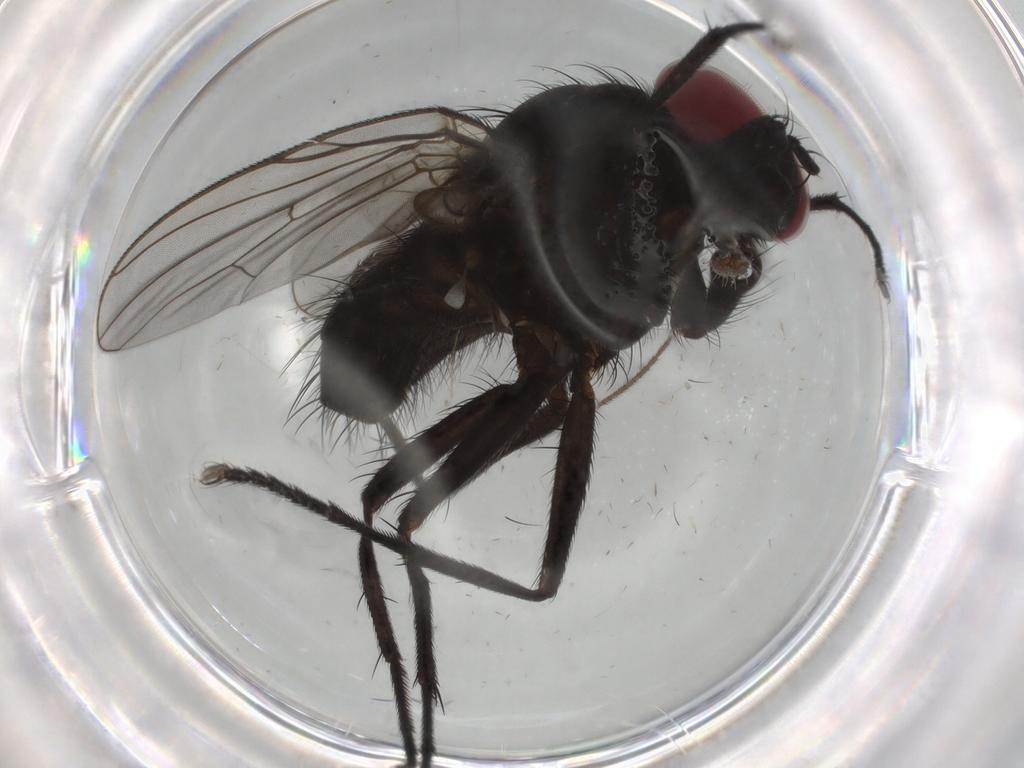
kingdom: Animalia
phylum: Arthropoda
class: Insecta
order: Diptera
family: Muscidae
